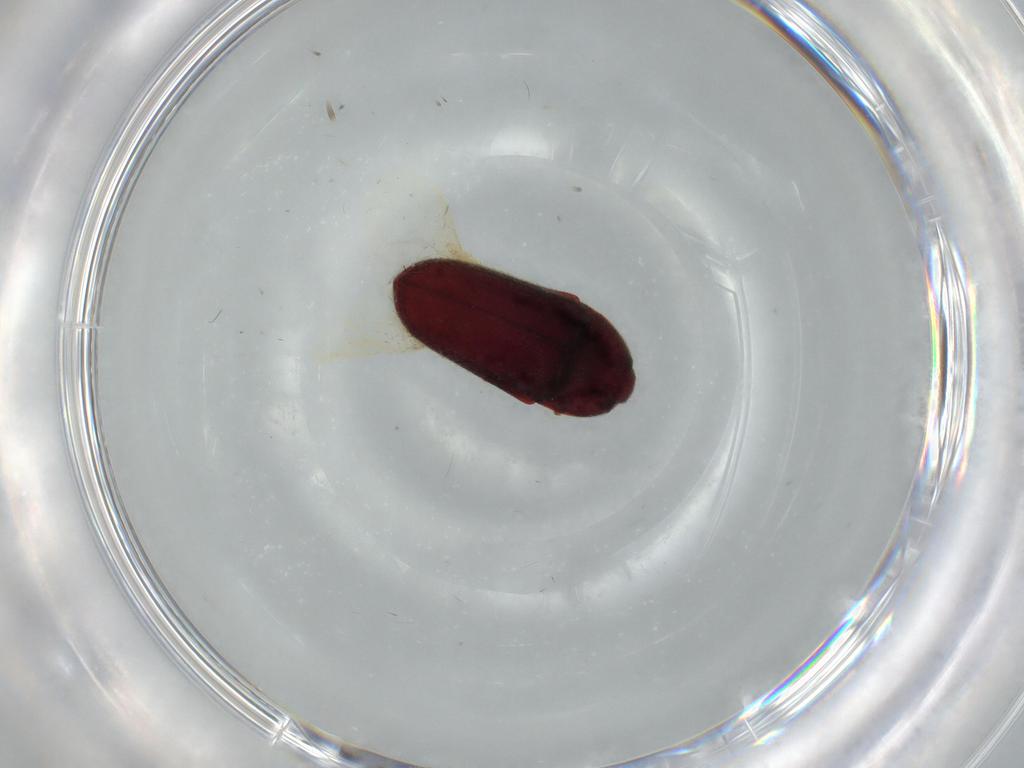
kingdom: Animalia
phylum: Arthropoda
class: Insecta
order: Coleoptera
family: Throscidae
